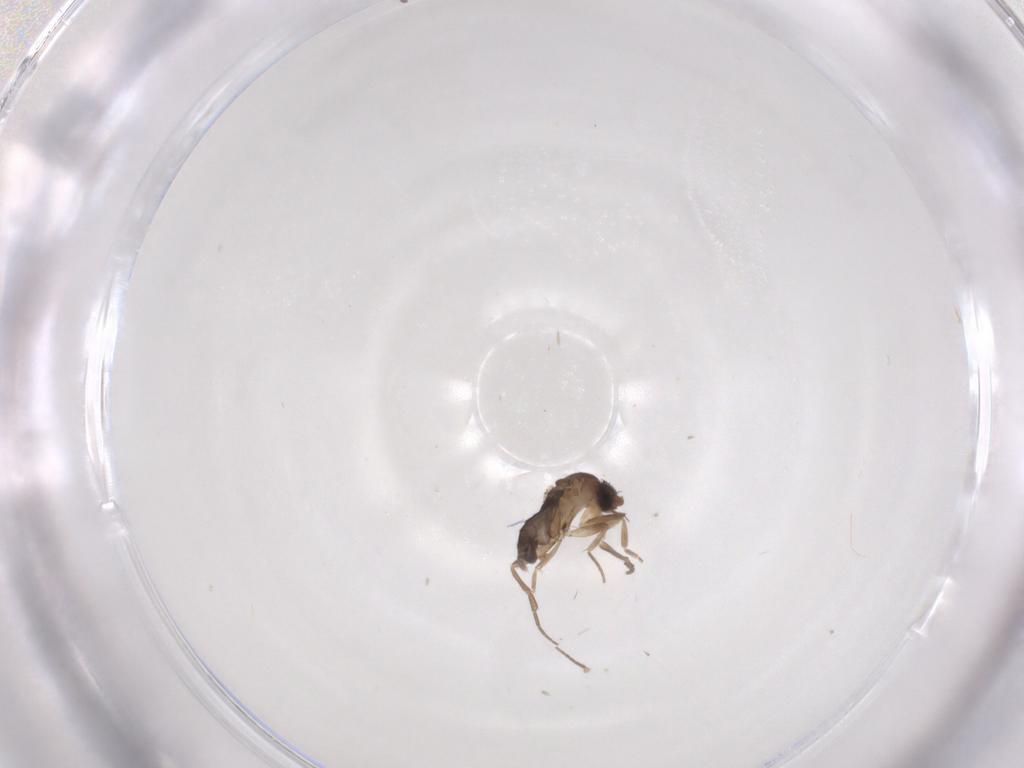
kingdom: Animalia
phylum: Arthropoda
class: Insecta
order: Diptera
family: Phoridae
